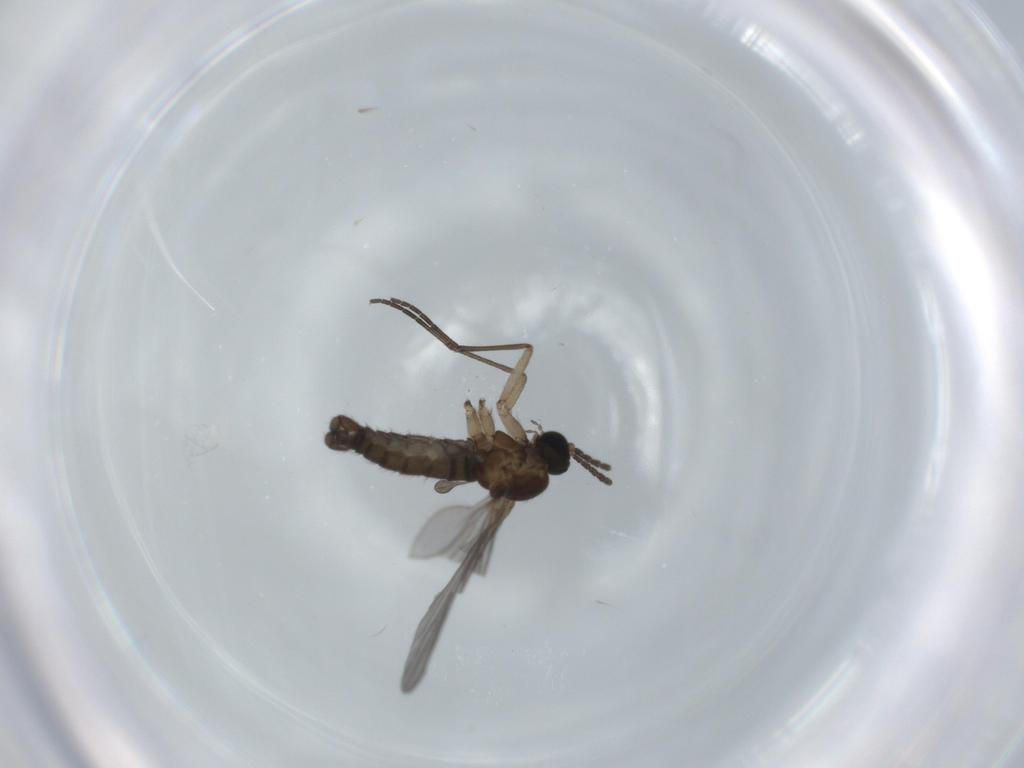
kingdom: Animalia
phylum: Arthropoda
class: Insecta
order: Diptera
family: Sciaridae
